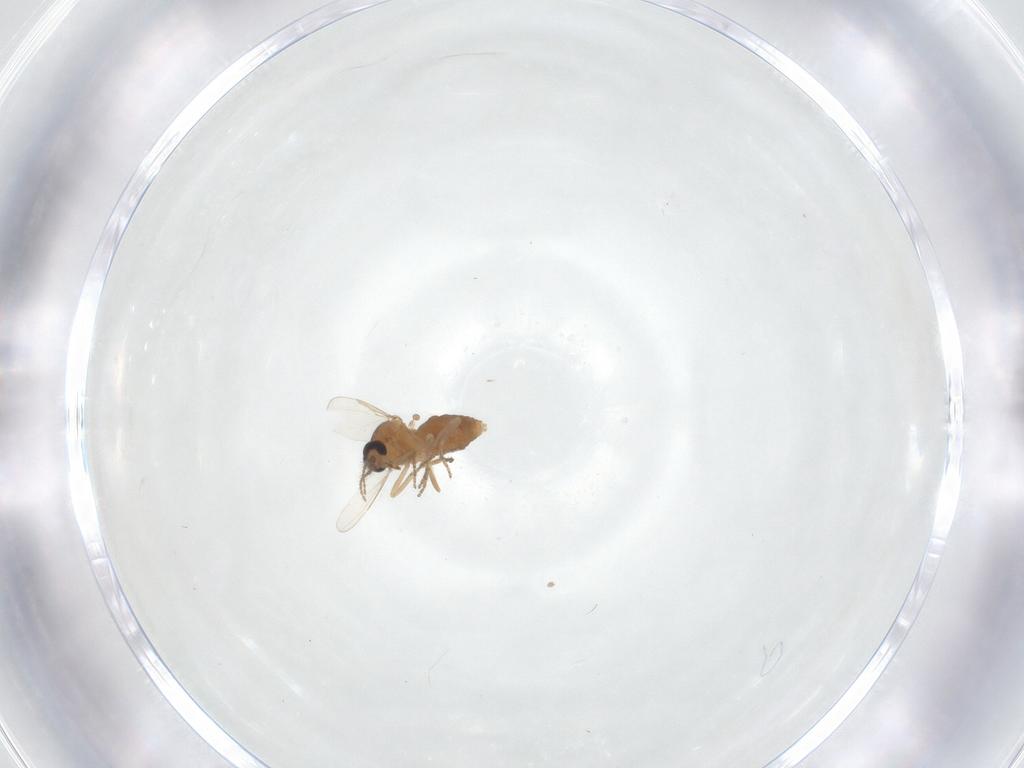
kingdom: Animalia
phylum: Arthropoda
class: Insecta
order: Diptera
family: Ceratopogonidae
